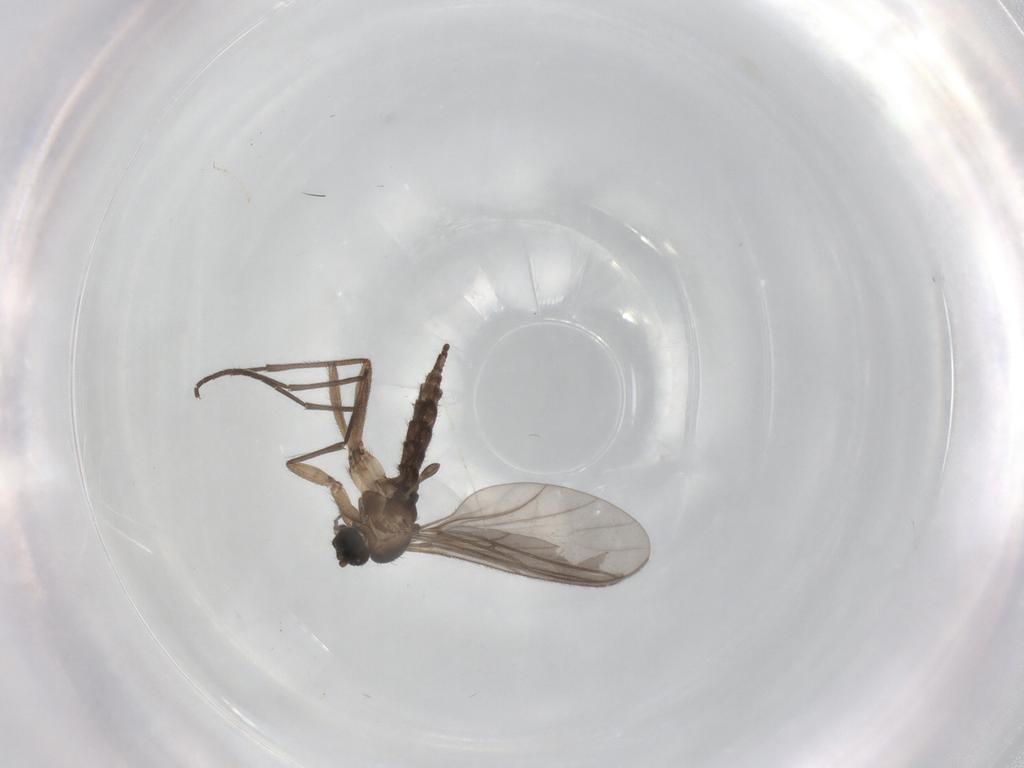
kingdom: Animalia
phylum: Arthropoda
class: Insecta
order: Diptera
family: Sciaridae
